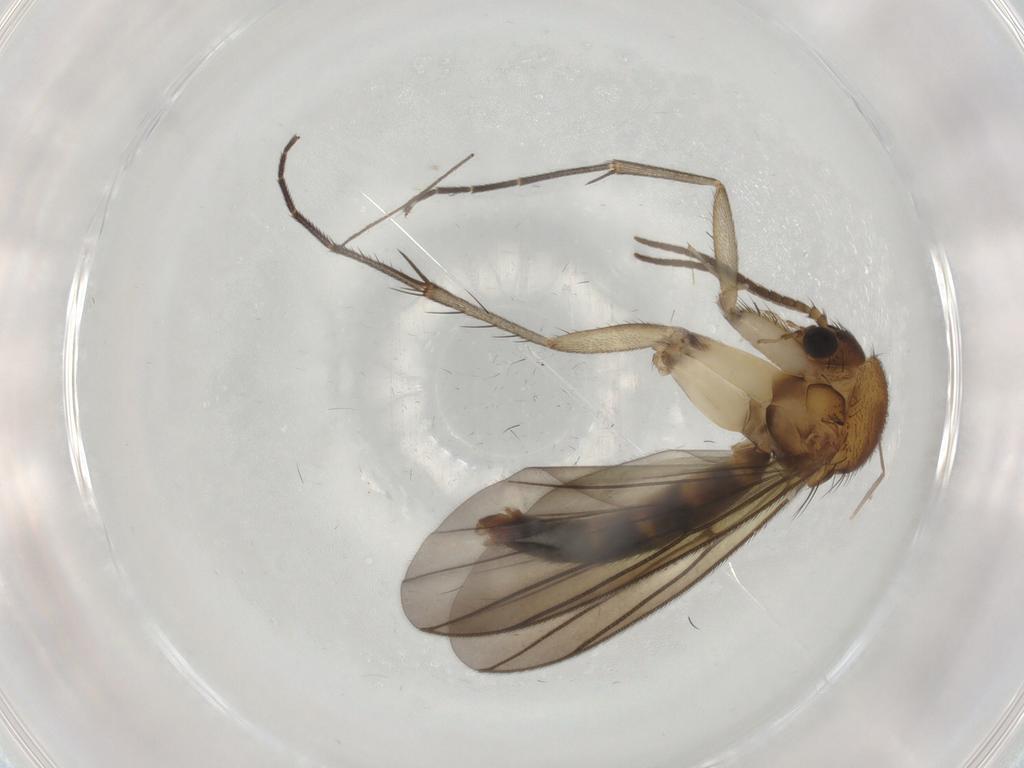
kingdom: Animalia
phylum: Arthropoda
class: Insecta
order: Diptera
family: Mycetophilidae
